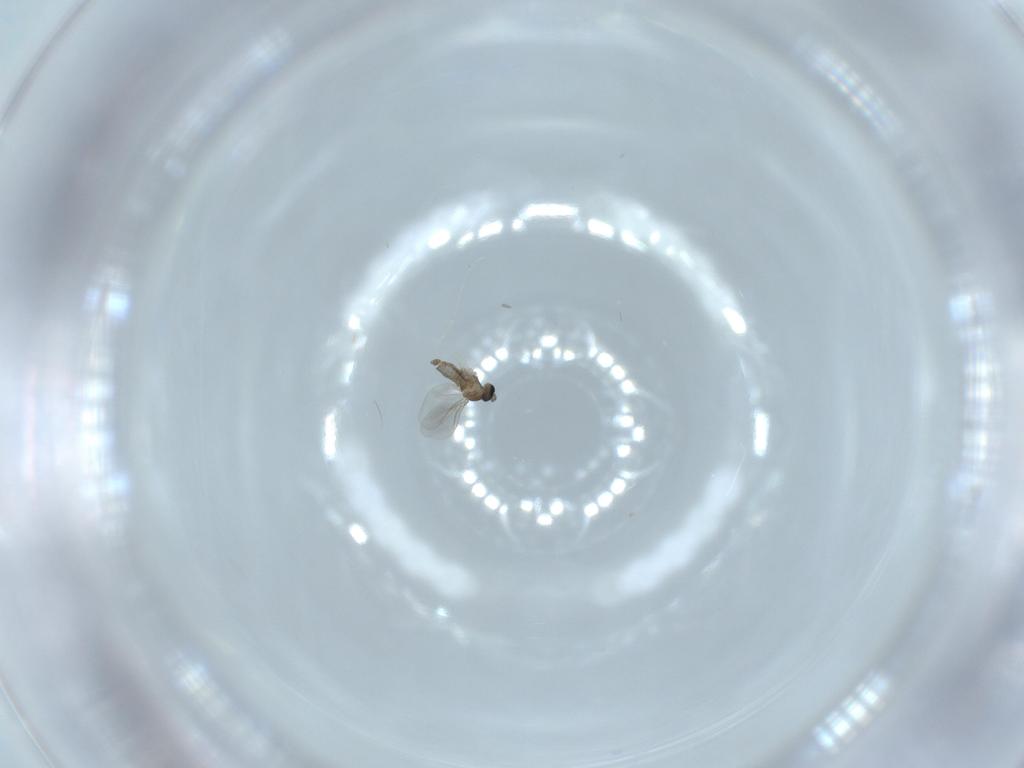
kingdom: Animalia
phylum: Arthropoda
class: Insecta
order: Diptera
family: Cecidomyiidae
